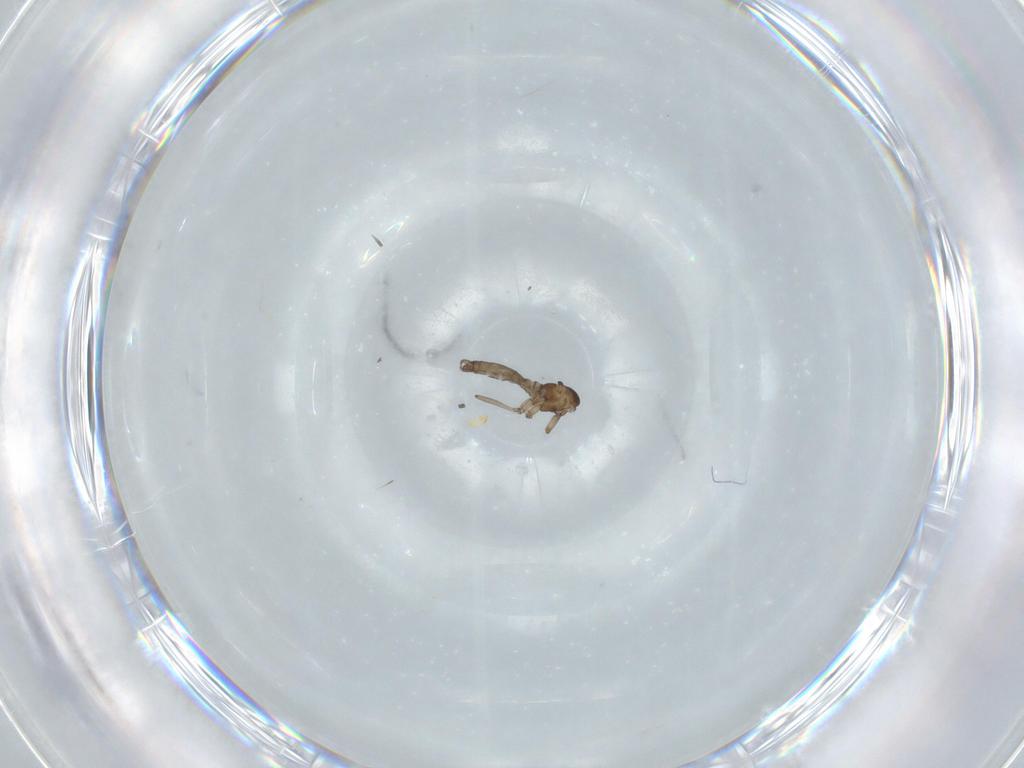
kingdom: Animalia
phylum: Arthropoda
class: Insecta
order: Diptera
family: Sciaridae
